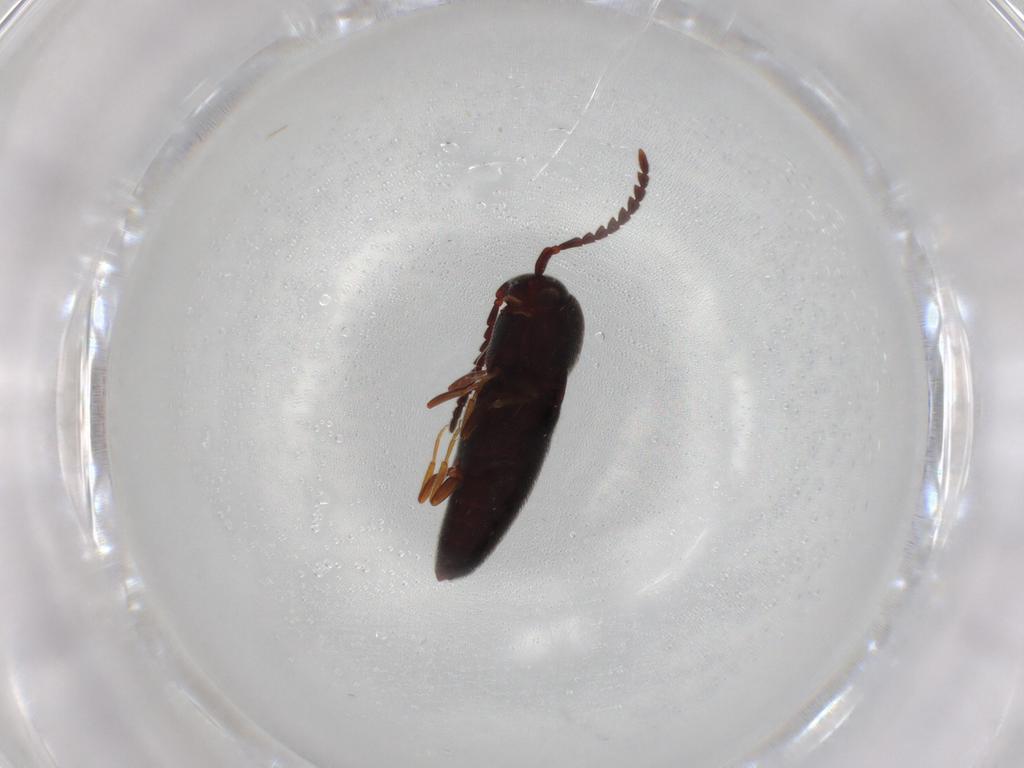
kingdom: Animalia
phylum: Arthropoda
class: Insecta
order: Coleoptera
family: Eucnemidae
